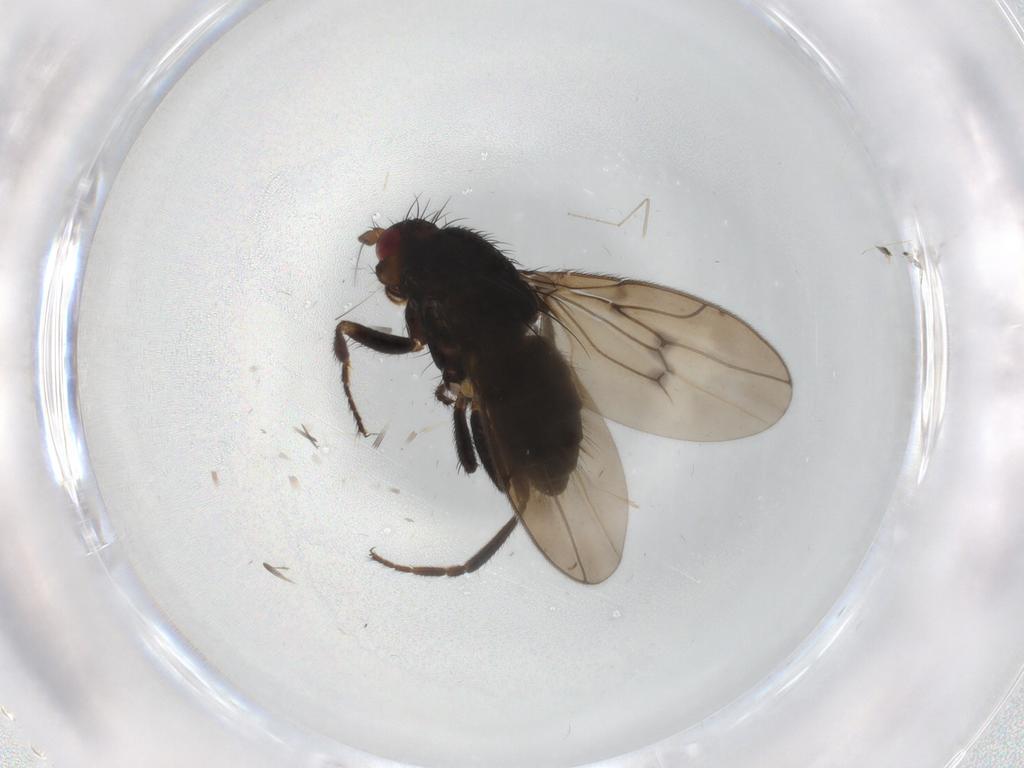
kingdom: Animalia
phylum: Arthropoda
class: Insecta
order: Diptera
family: Sphaeroceridae
